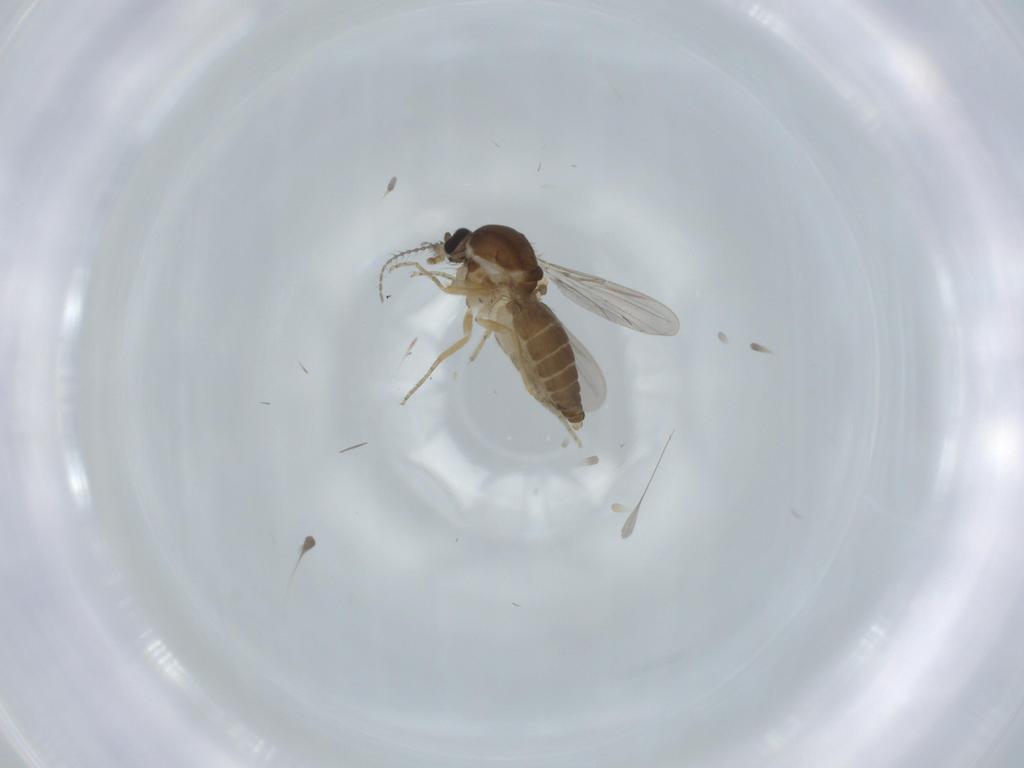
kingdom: Animalia
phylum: Arthropoda
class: Insecta
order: Diptera
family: Ceratopogonidae
